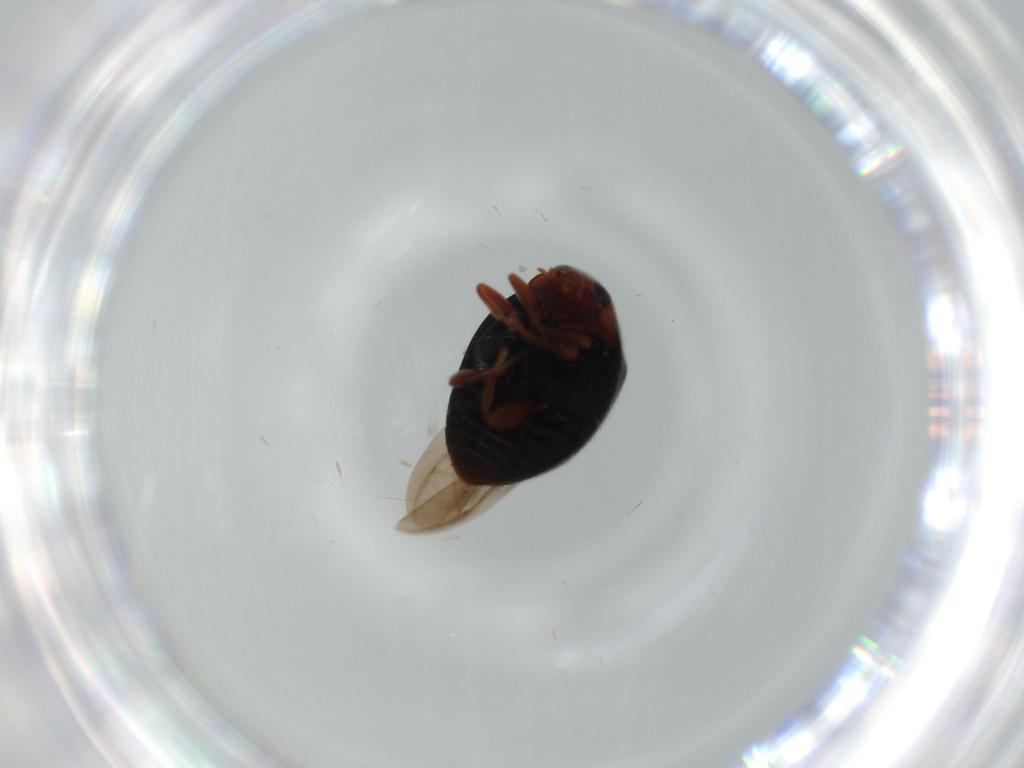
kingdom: Animalia
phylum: Arthropoda
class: Insecta
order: Coleoptera
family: Coccinellidae
